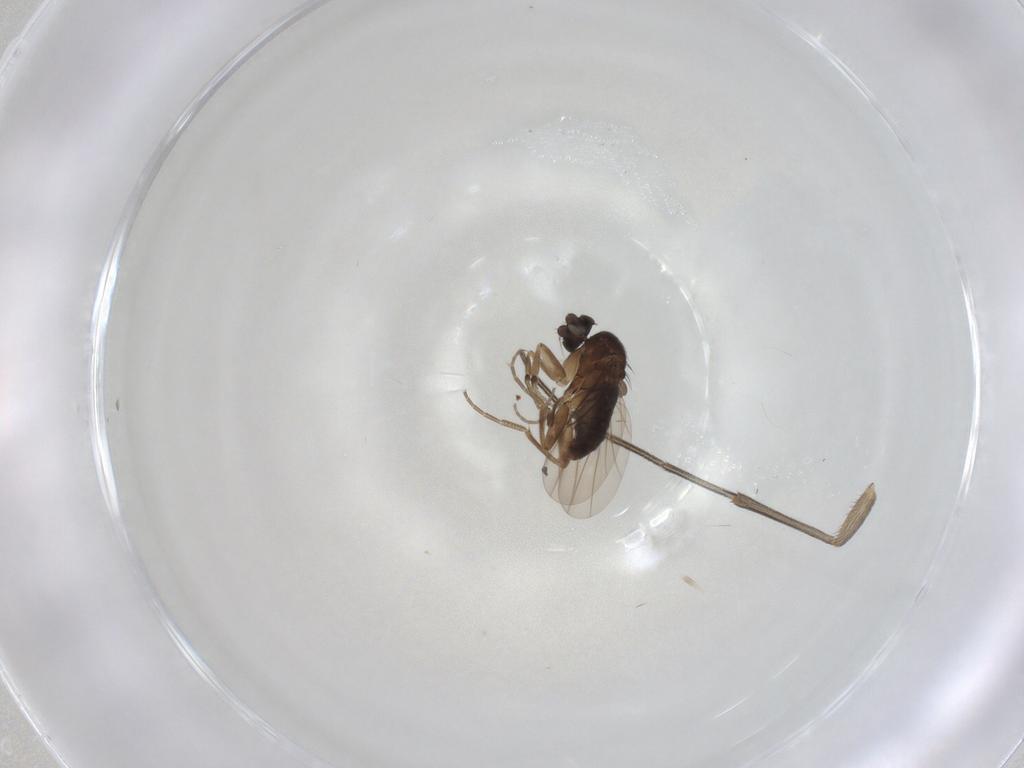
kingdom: Animalia
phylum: Arthropoda
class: Insecta
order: Diptera
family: Phoridae
